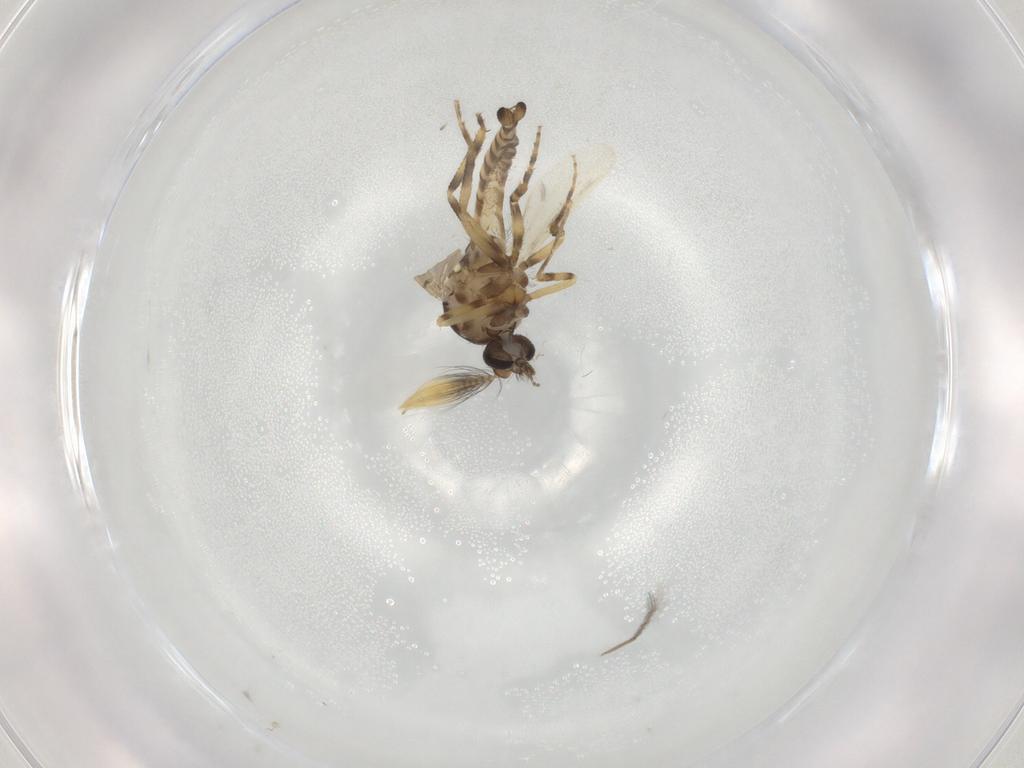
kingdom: Animalia
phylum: Arthropoda
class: Insecta
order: Diptera
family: Ceratopogonidae
